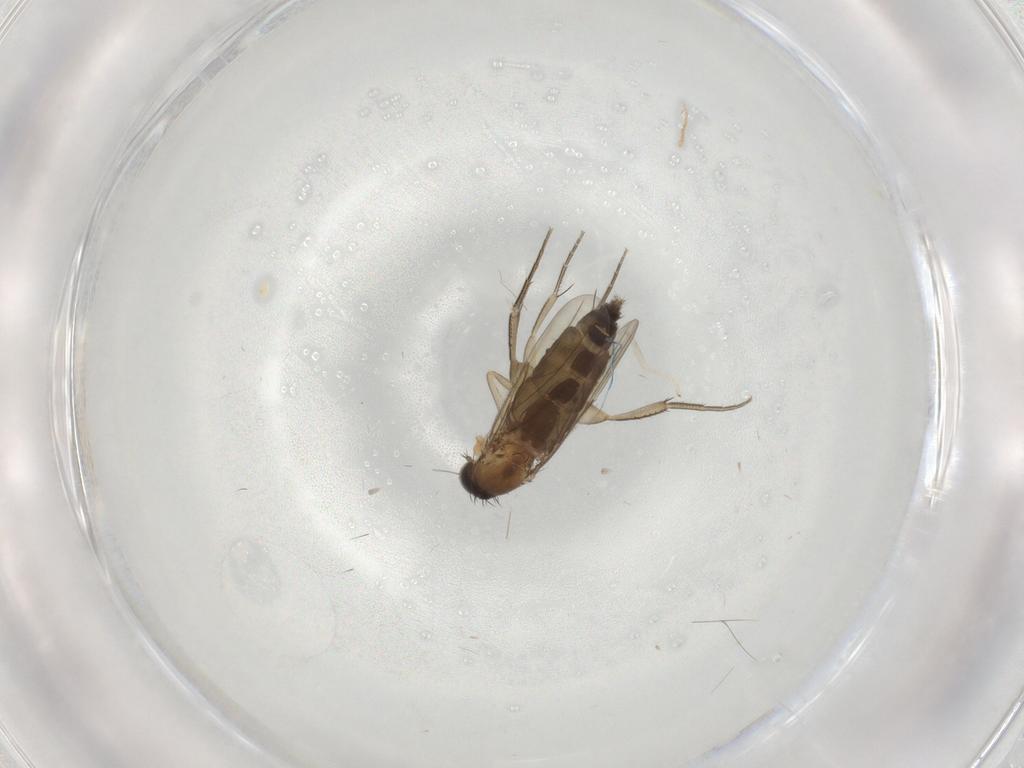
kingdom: Animalia
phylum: Arthropoda
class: Insecta
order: Diptera
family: Phoridae
